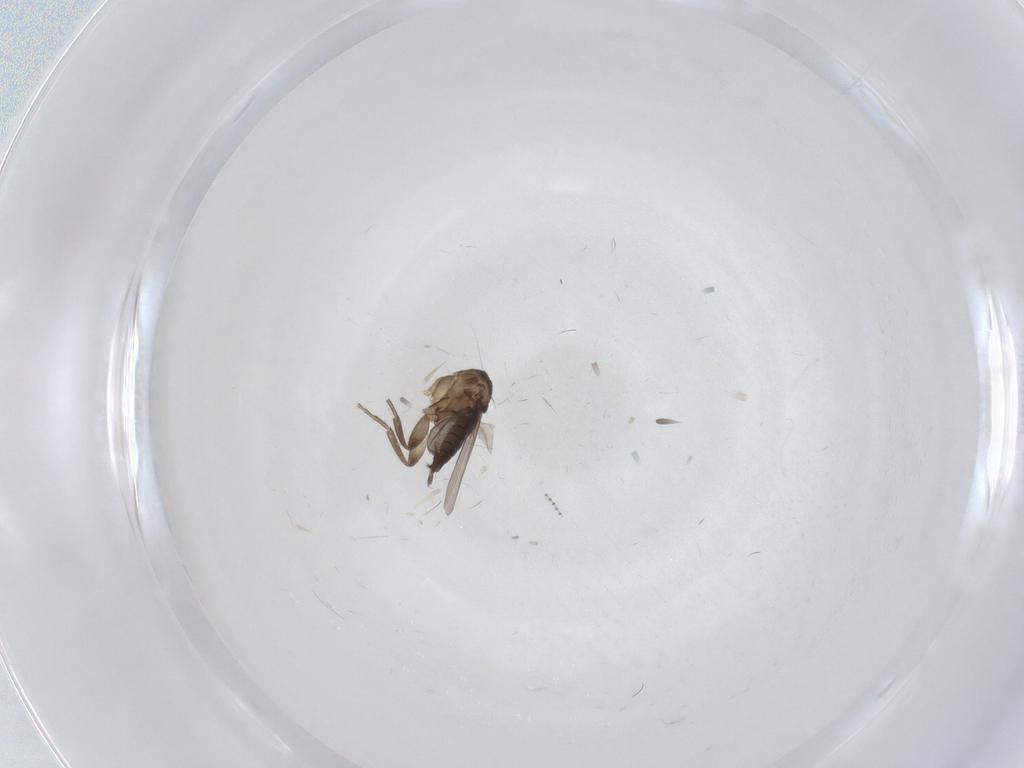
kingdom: Animalia
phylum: Arthropoda
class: Insecta
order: Diptera
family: Phoridae
